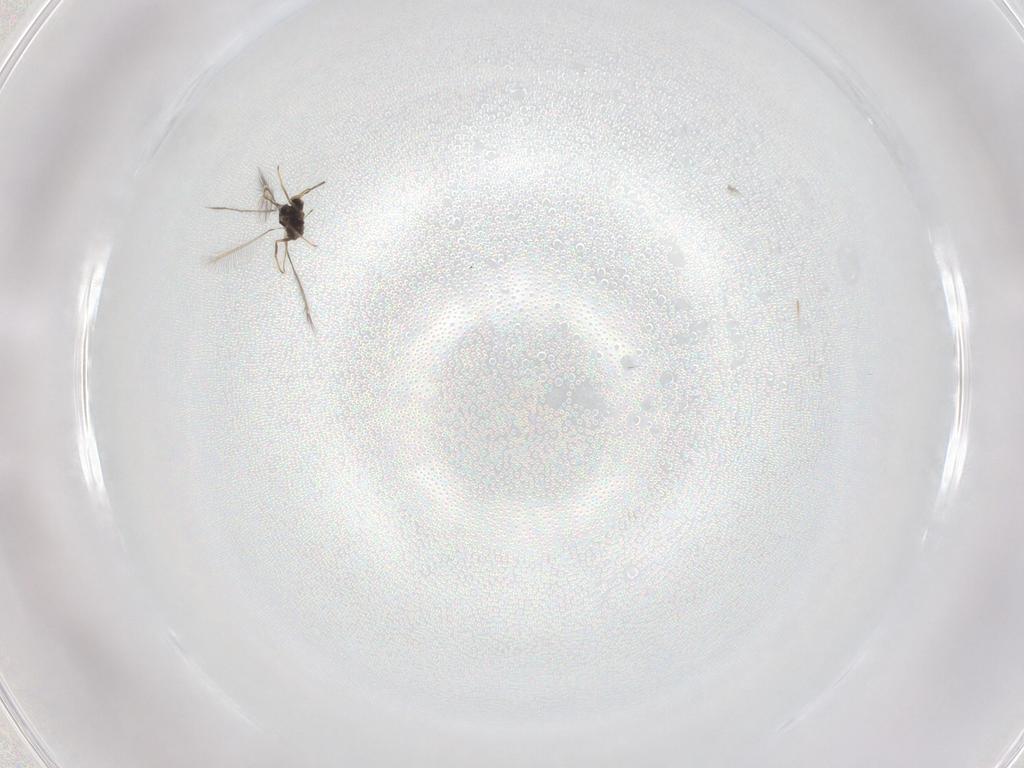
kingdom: Animalia
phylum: Arthropoda
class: Insecta
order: Hymenoptera
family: Mymaridae
